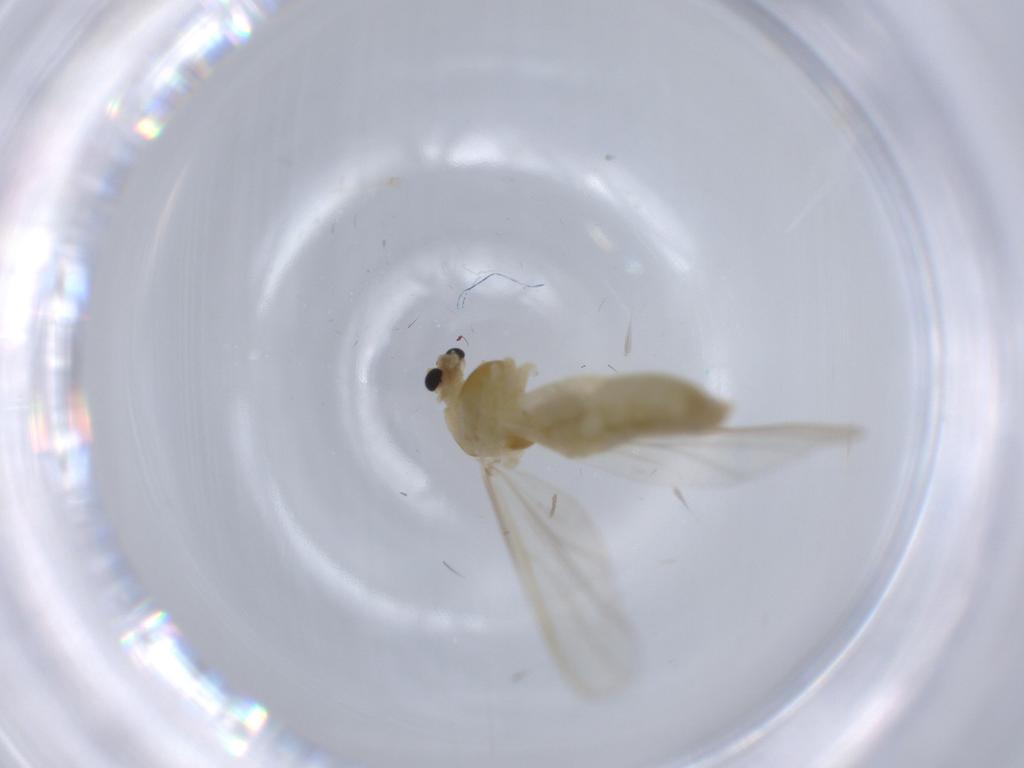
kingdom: Animalia
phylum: Arthropoda
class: Insecta
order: Diptera
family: Chironomidae
